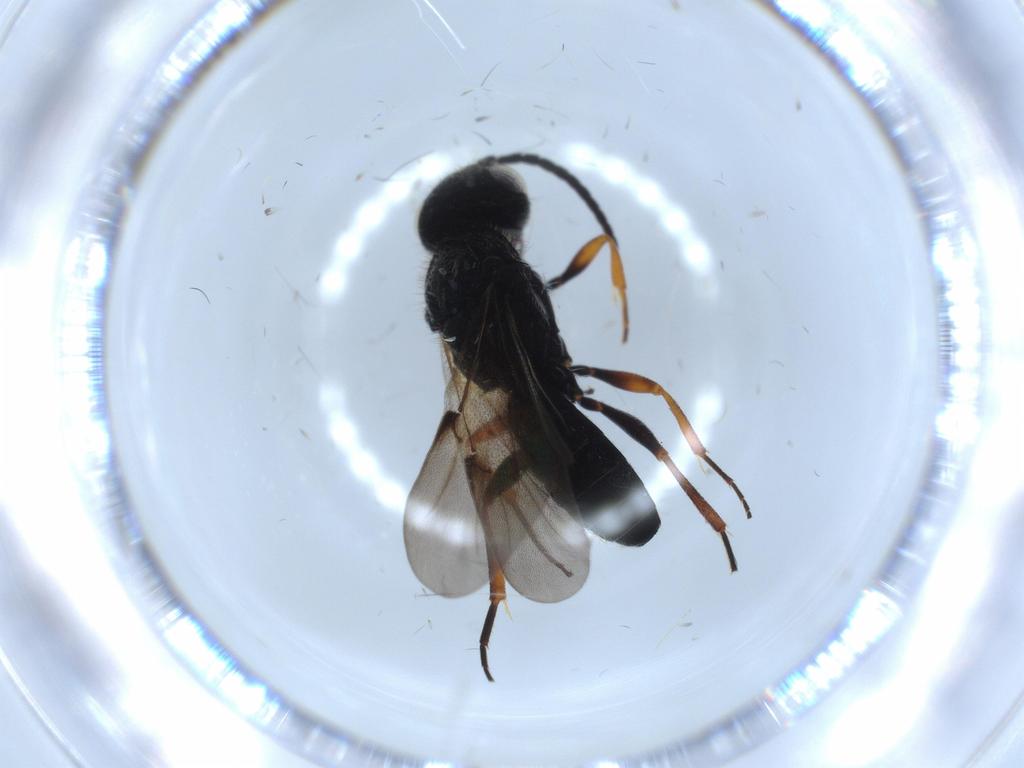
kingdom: Animalia
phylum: Arthropoda
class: Insecta
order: Hymenoptera
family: Scelionidae
